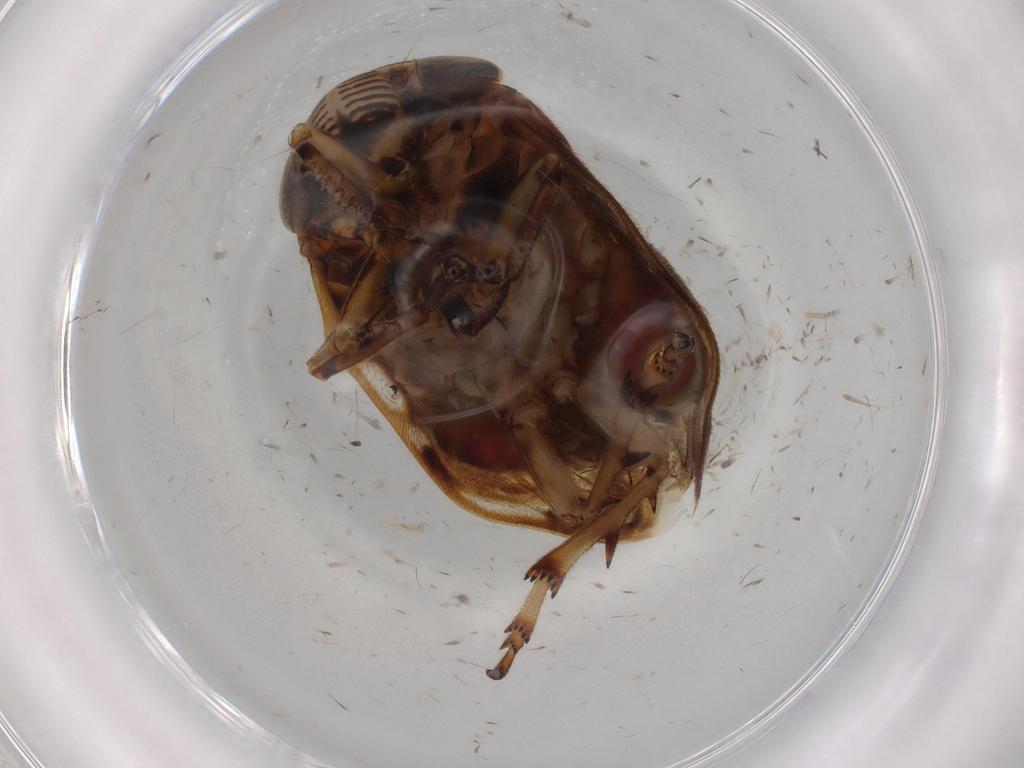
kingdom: Animalia
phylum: Arthropoda
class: Insecta
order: Hemiptera
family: Clastopteridae
